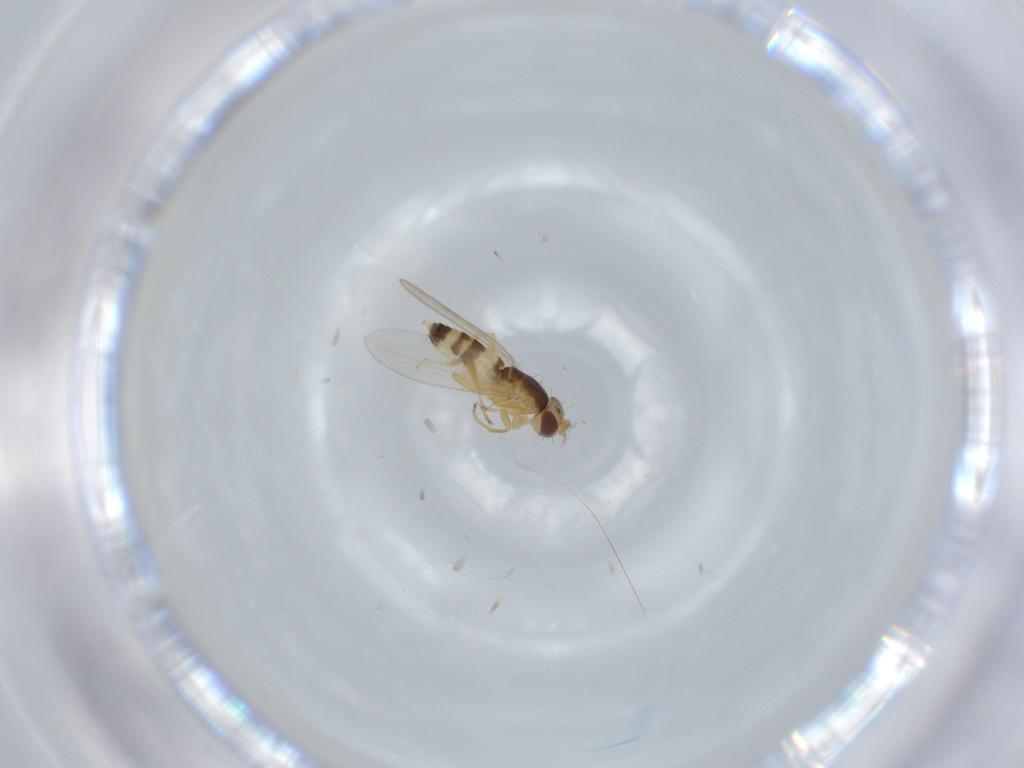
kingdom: Animalia
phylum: Arthropoda
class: Insecta
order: Diptera
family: Periscelididae
